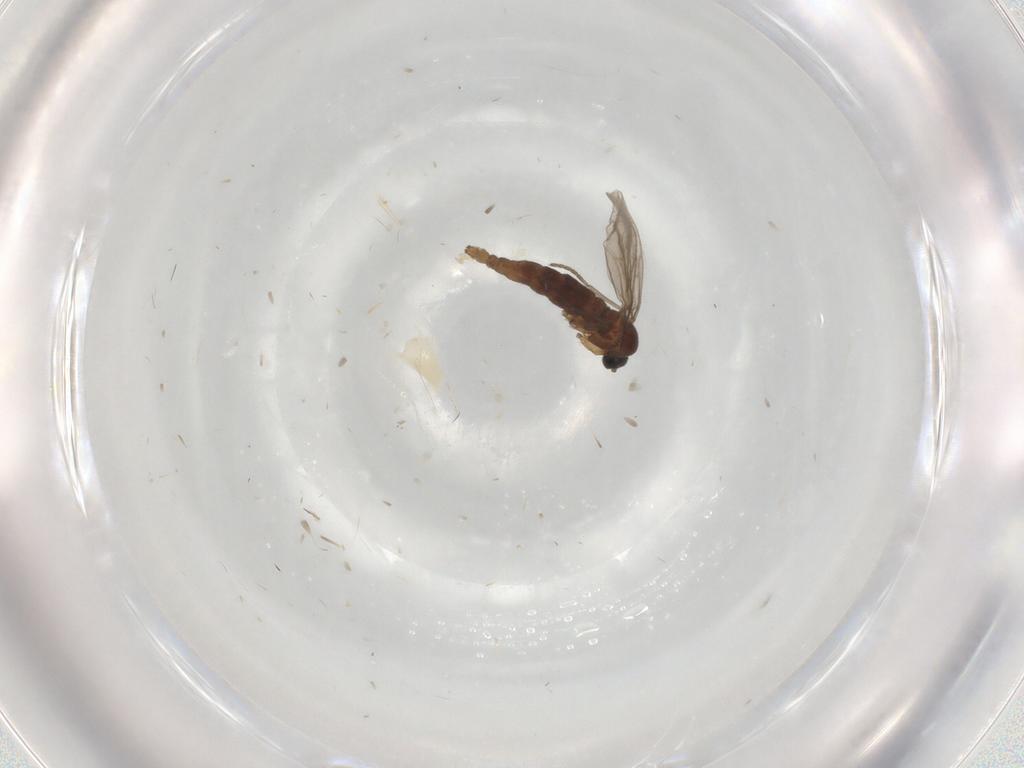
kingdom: Animalia
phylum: Arthropoda
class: Insecta
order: Diptera
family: Sciaridae
